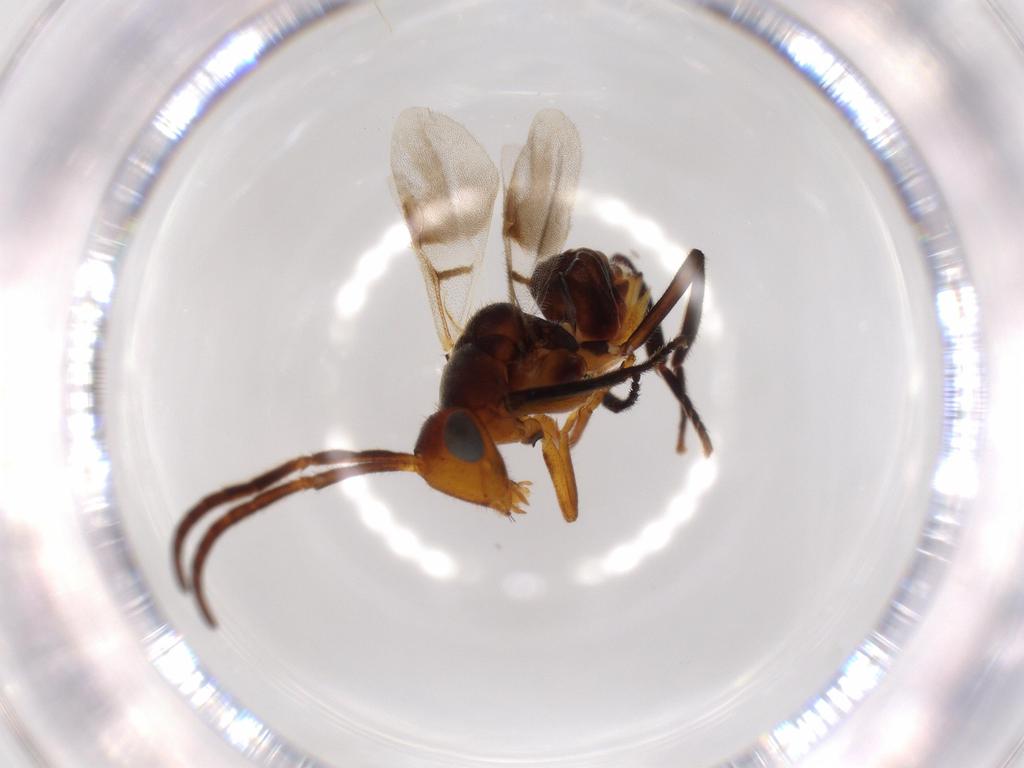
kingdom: Animalia
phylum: Arthropoda
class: Insecta
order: Hymenoptera
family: Encyrtidae
